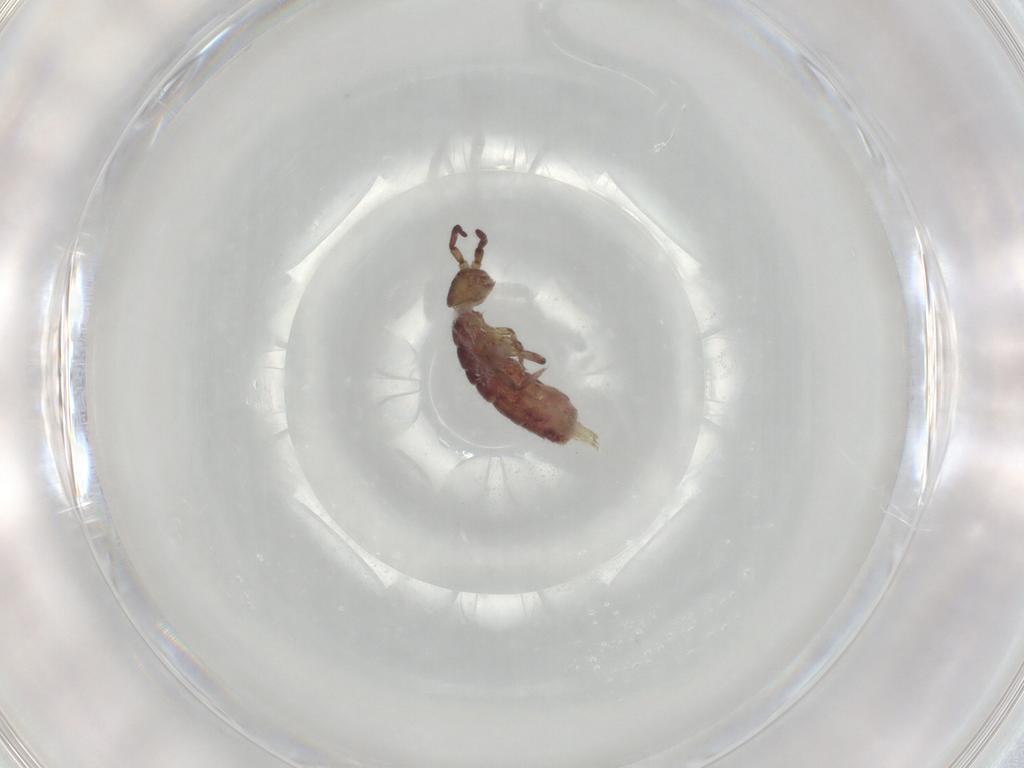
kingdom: Animalia
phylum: Arthropoda
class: Collembola
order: Entomobryomorpha
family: Isotomidae
